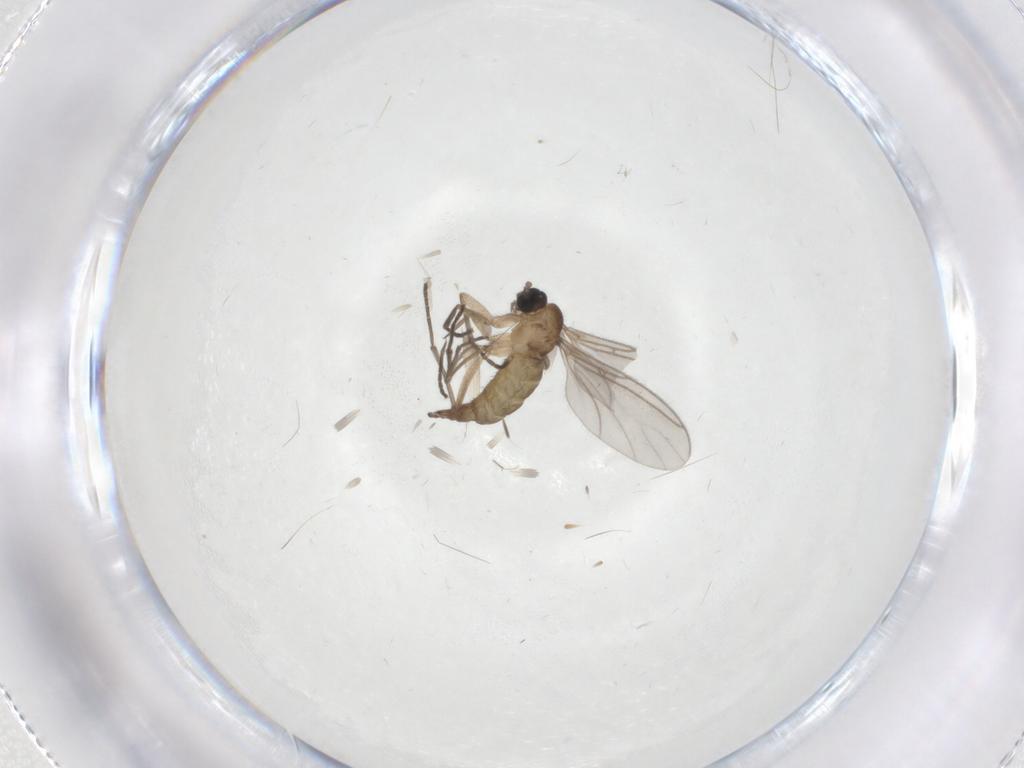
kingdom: Animalia
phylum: Arthropoda
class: Insecta
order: Diptera
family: Sciaridae
